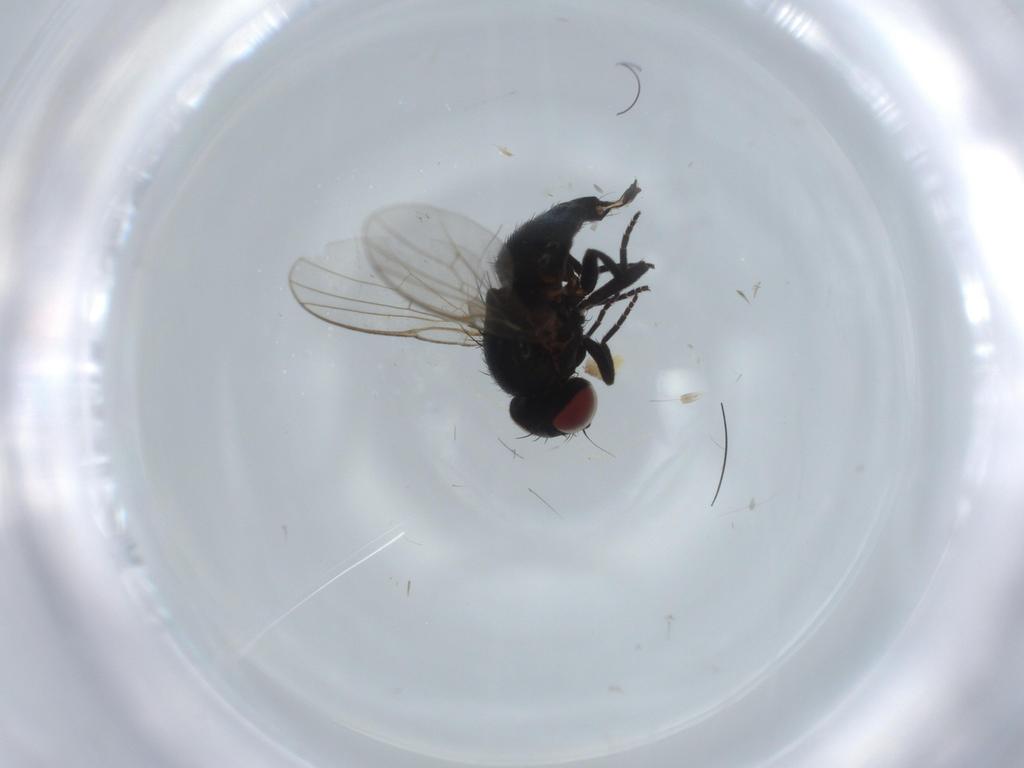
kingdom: Animalia
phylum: Arthropoda
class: Insecta
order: Diptera
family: Agromyzidae
